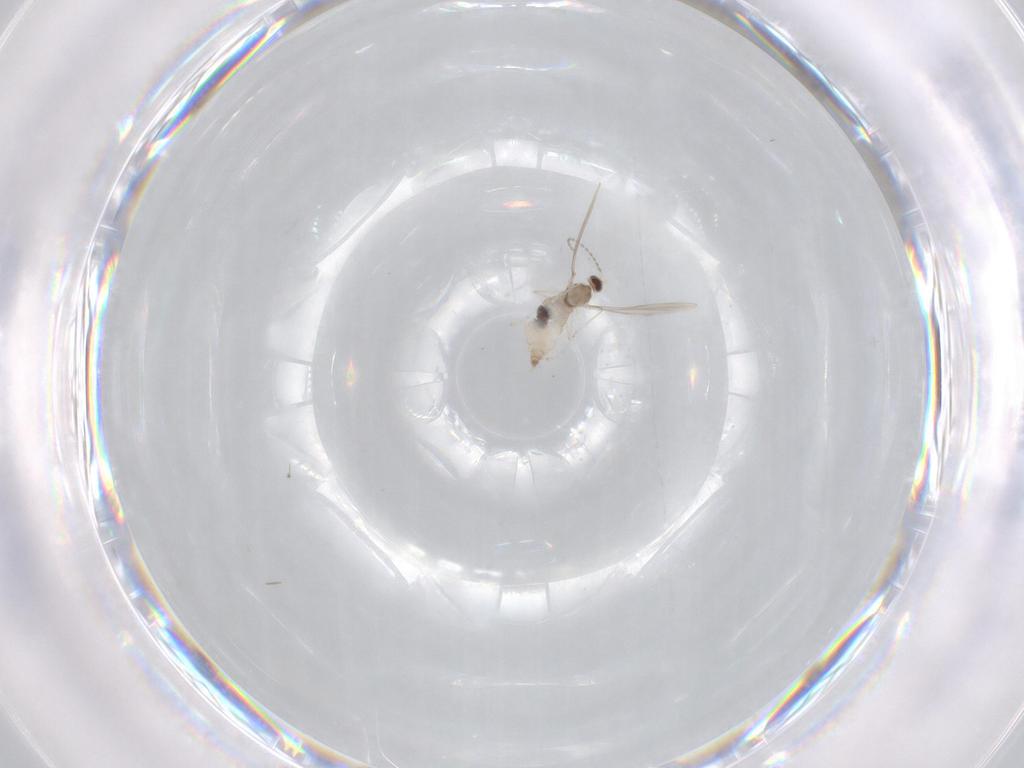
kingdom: Animalia
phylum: Arthropoda
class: Insecta
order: Diptera
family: Cecidomyiidae
